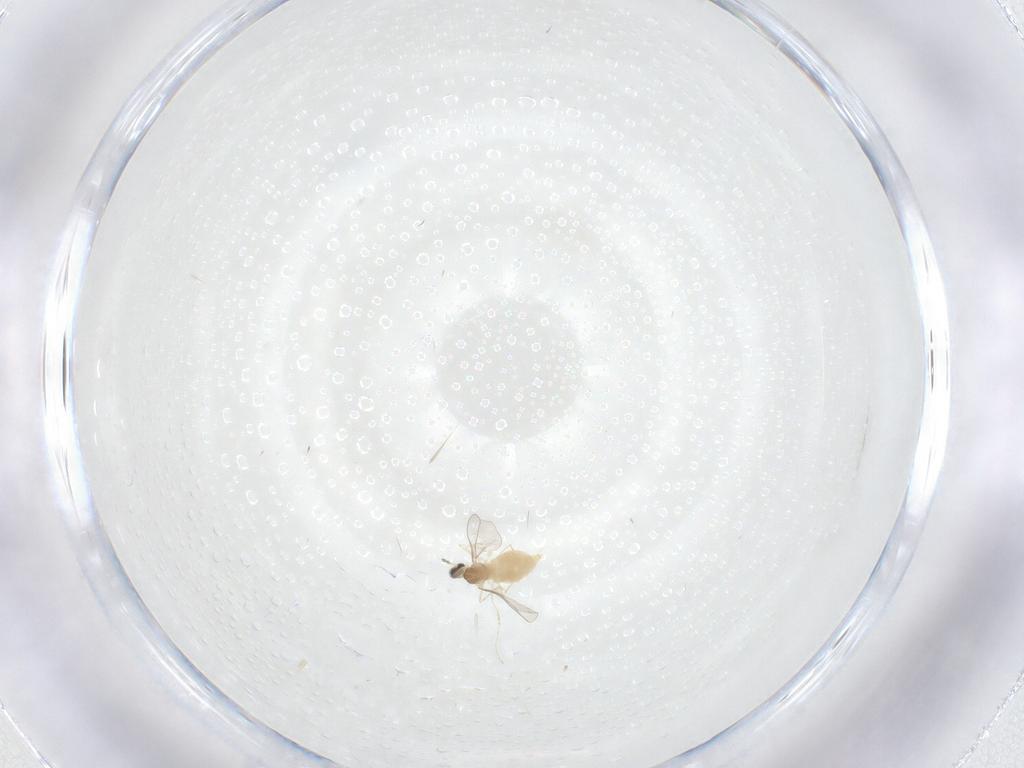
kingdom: Animalia
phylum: Arthropoda
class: Insecta
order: Diptera
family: Cecidomyiidae
